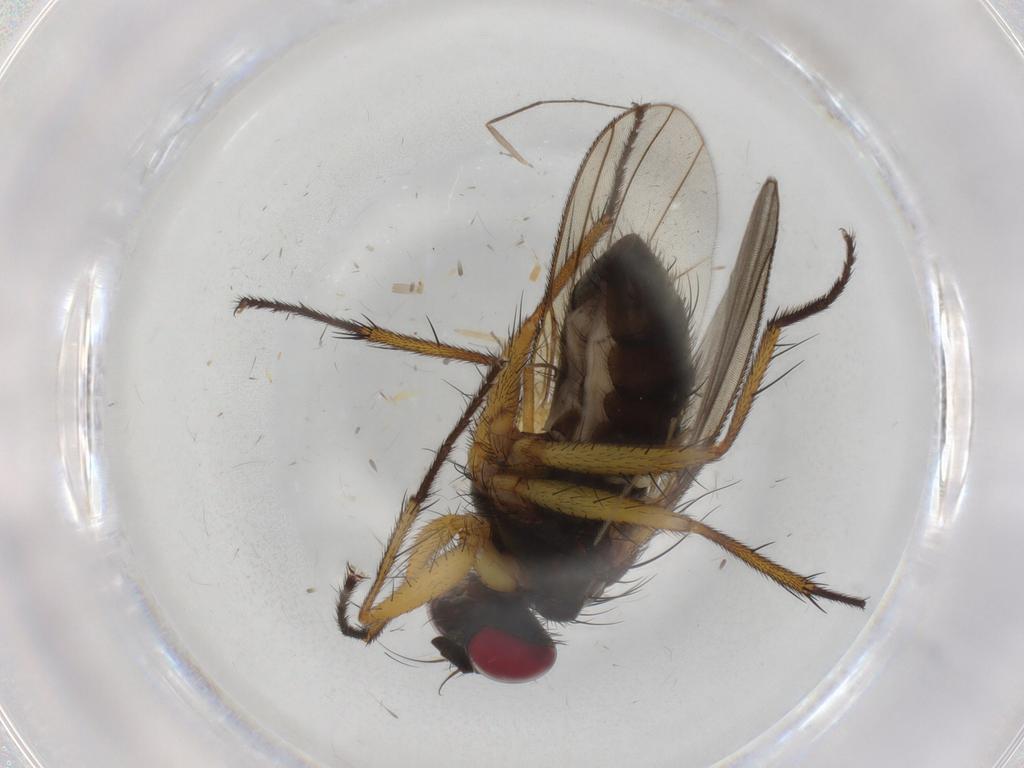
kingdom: Animalia
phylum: Arthropoda
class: Insecta
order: Diptera
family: Muscidae
